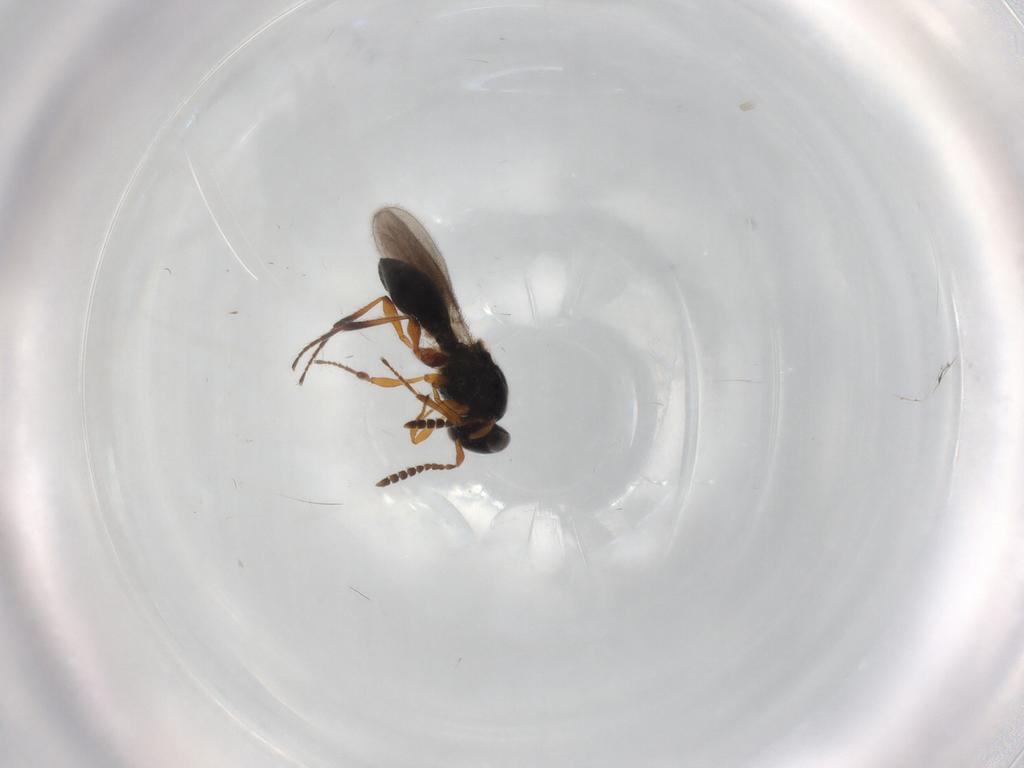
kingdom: Animalia
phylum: Arthropoda
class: Insecta
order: Hymenoptera
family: Platygastridae
